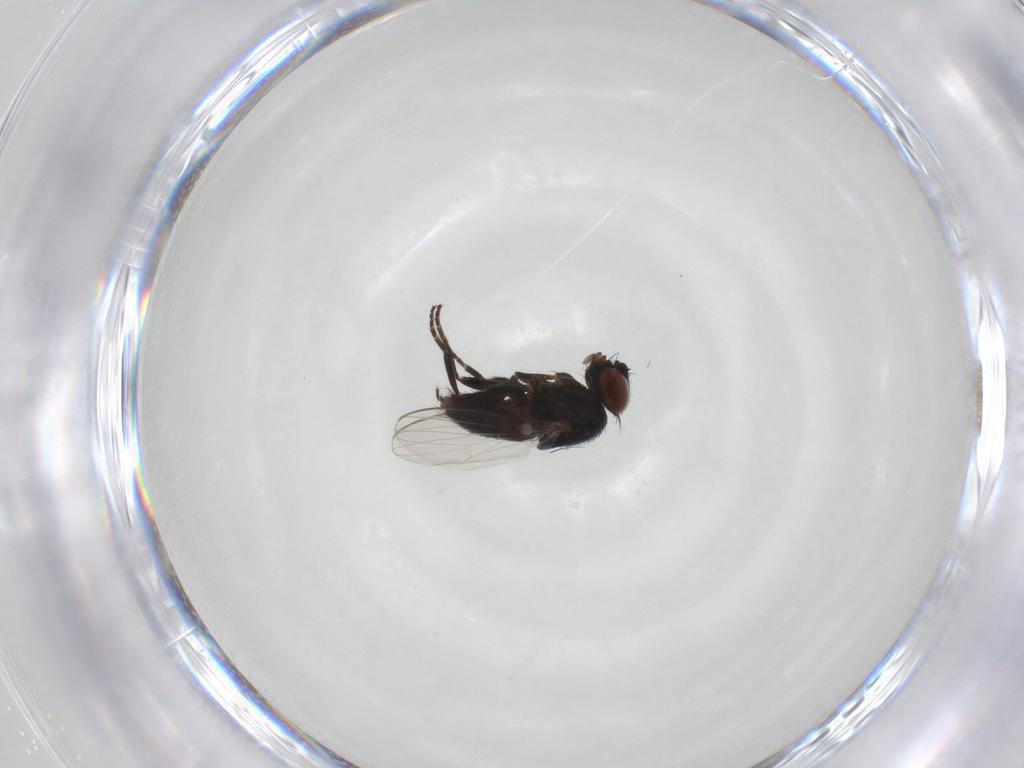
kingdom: Animalia
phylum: Arthropoda
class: Insecta
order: Diptera
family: Milichiidae
